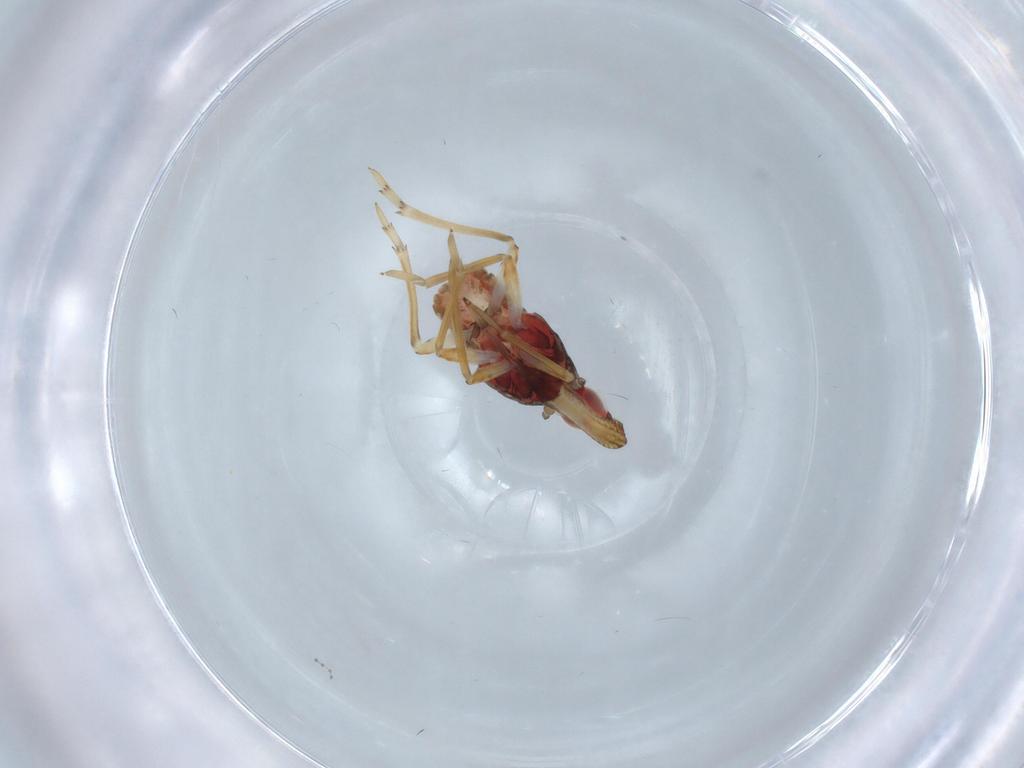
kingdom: Animalia
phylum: Arthropoda
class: Insecta
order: Hemiptera
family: Fulgoroidea_incertae_sedis
